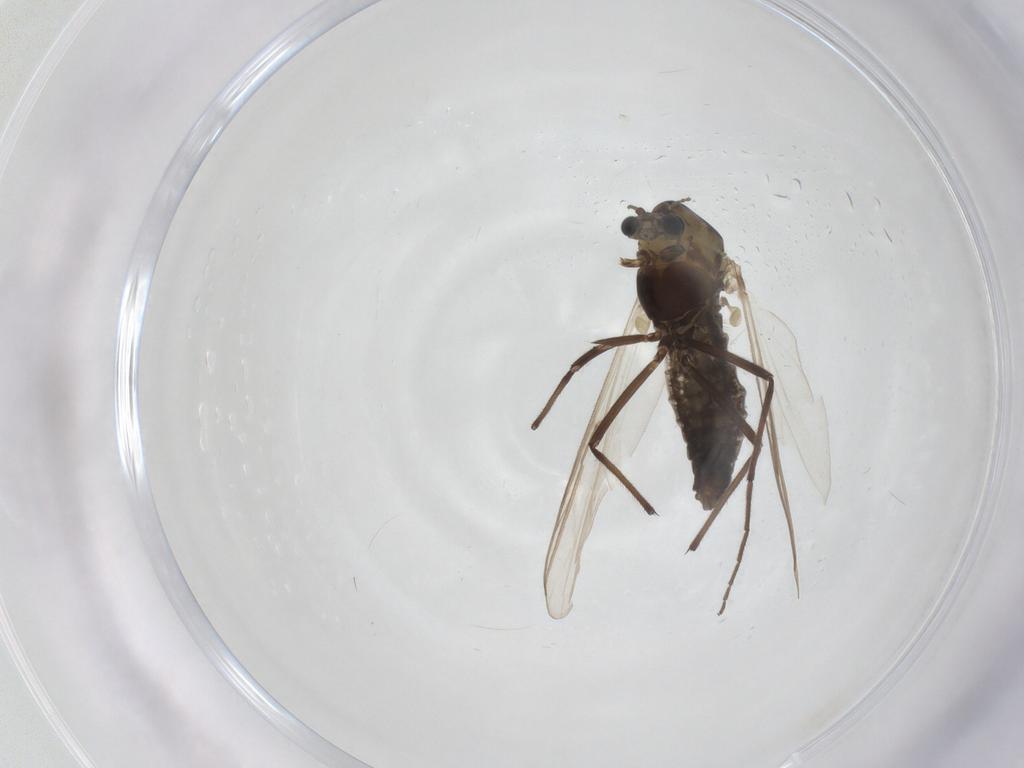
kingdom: Animalia
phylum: Arthropoda
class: Insecta
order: Diptera
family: Chironomidae
